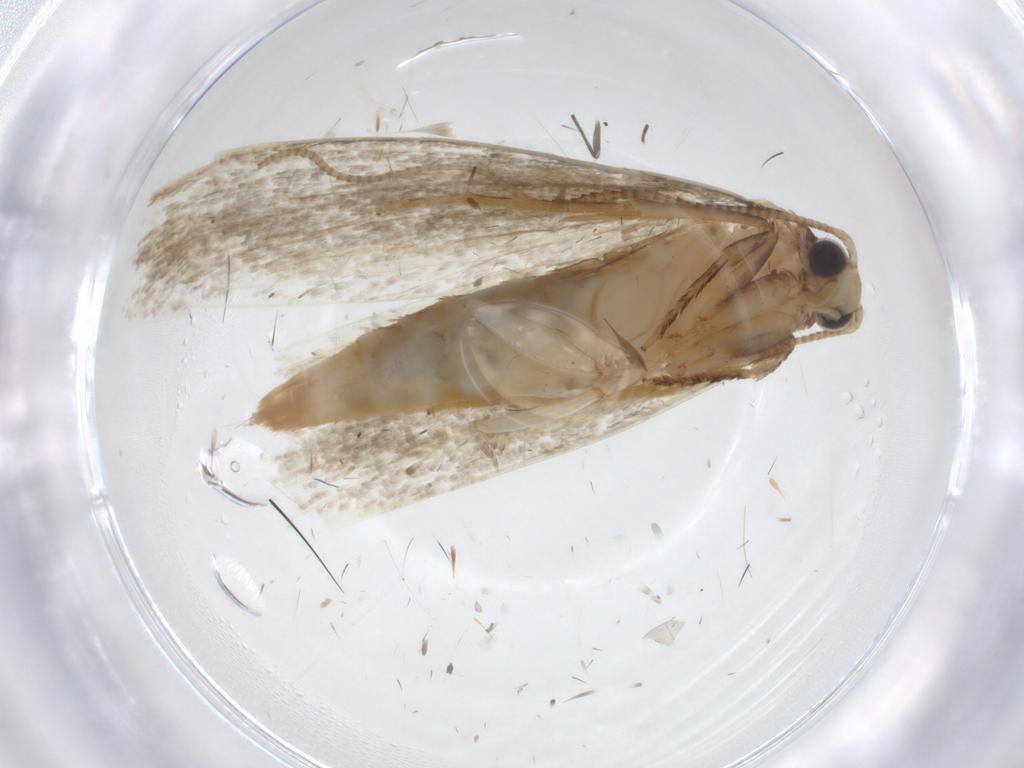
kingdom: Animalia
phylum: Arthropoda
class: Insecta
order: Lepidoptera
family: Tineidae
